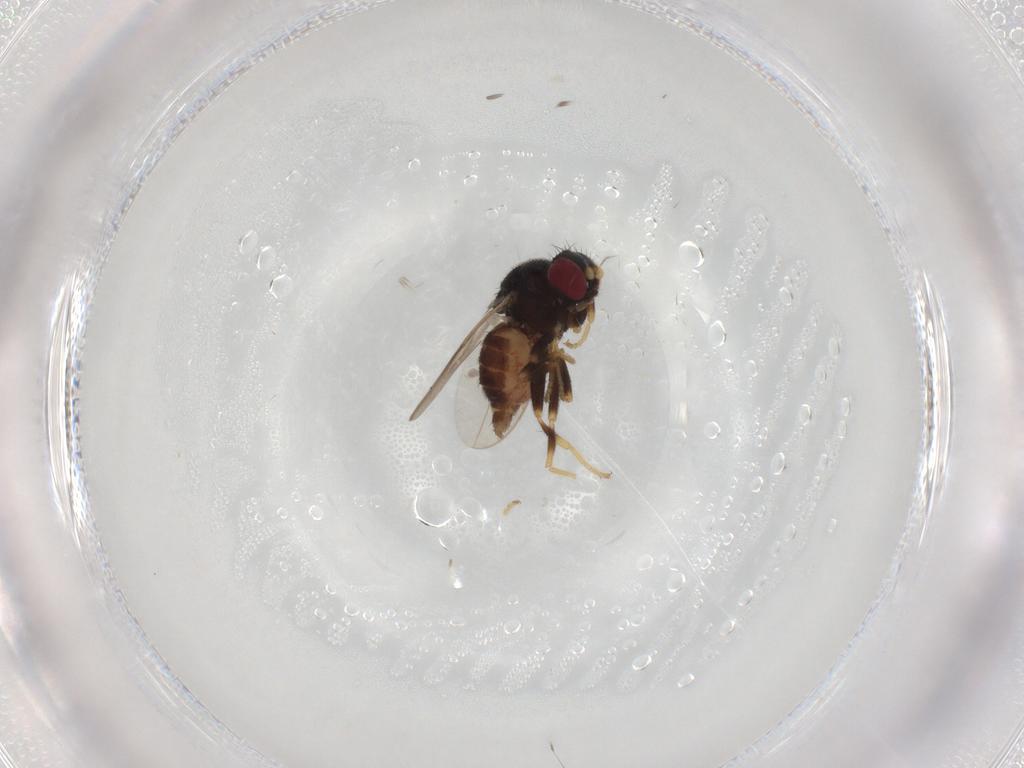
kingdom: Animalia
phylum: Arthropoda
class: Insecta
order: Diptera
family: Chloropidae
